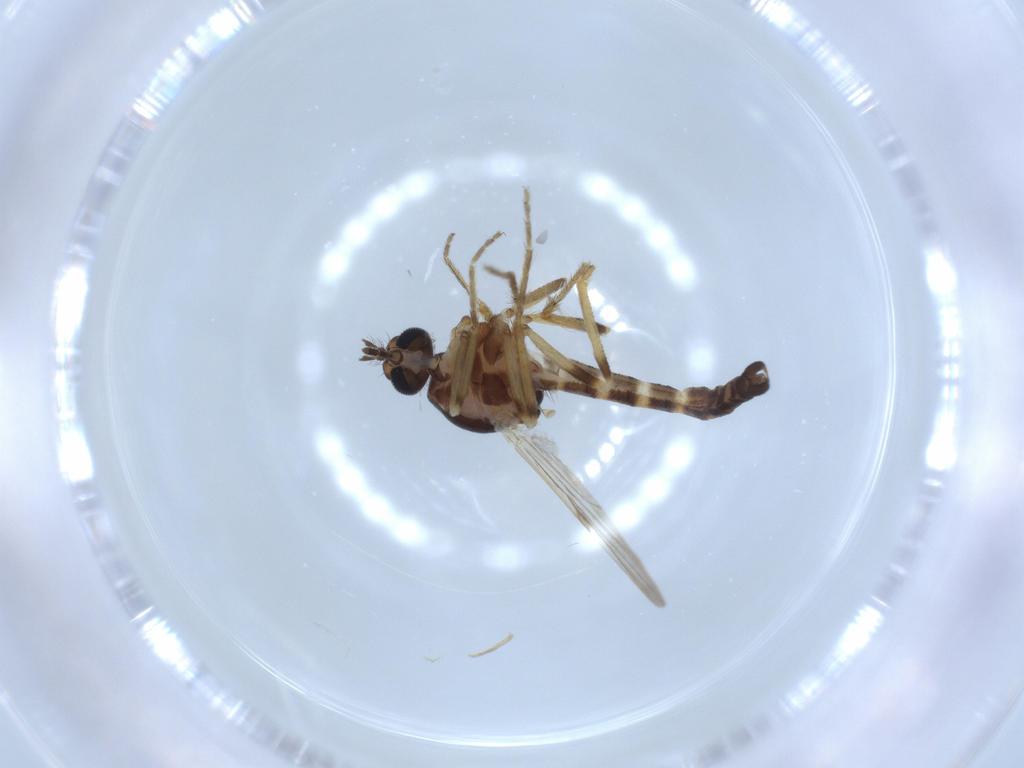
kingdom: Animalia
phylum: Arthropoda
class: Insecta
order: Diptera
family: Ceratopogonidae
